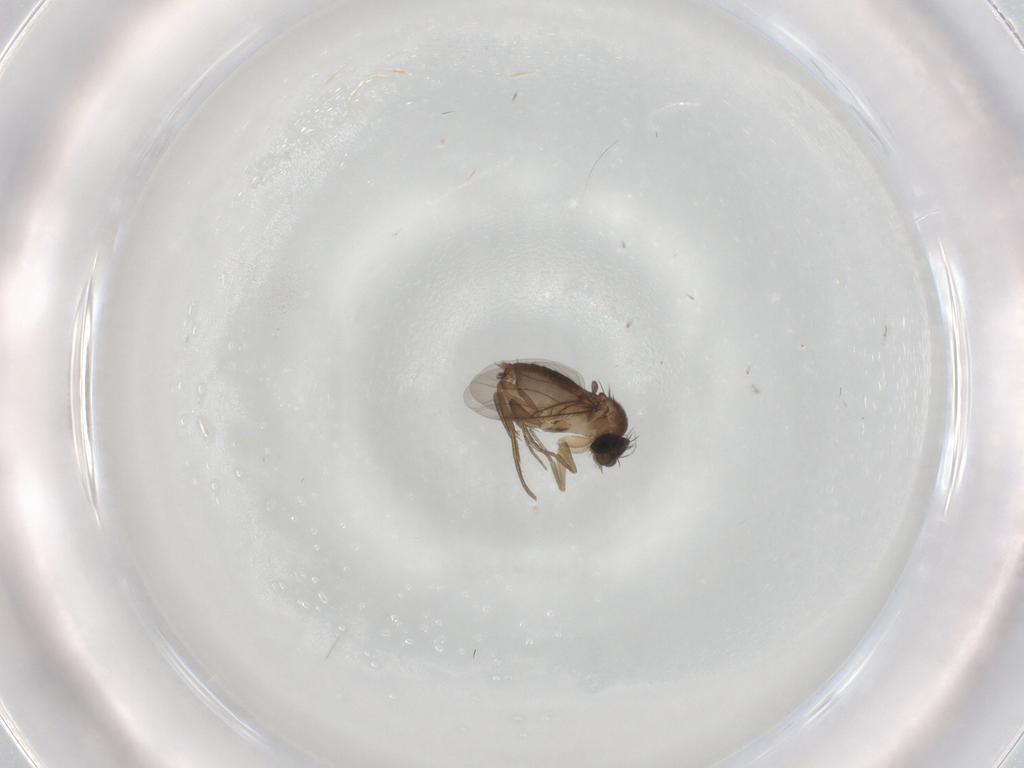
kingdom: Animalia
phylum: Arthropoda
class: Insecta
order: Diptera
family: Phoridae
